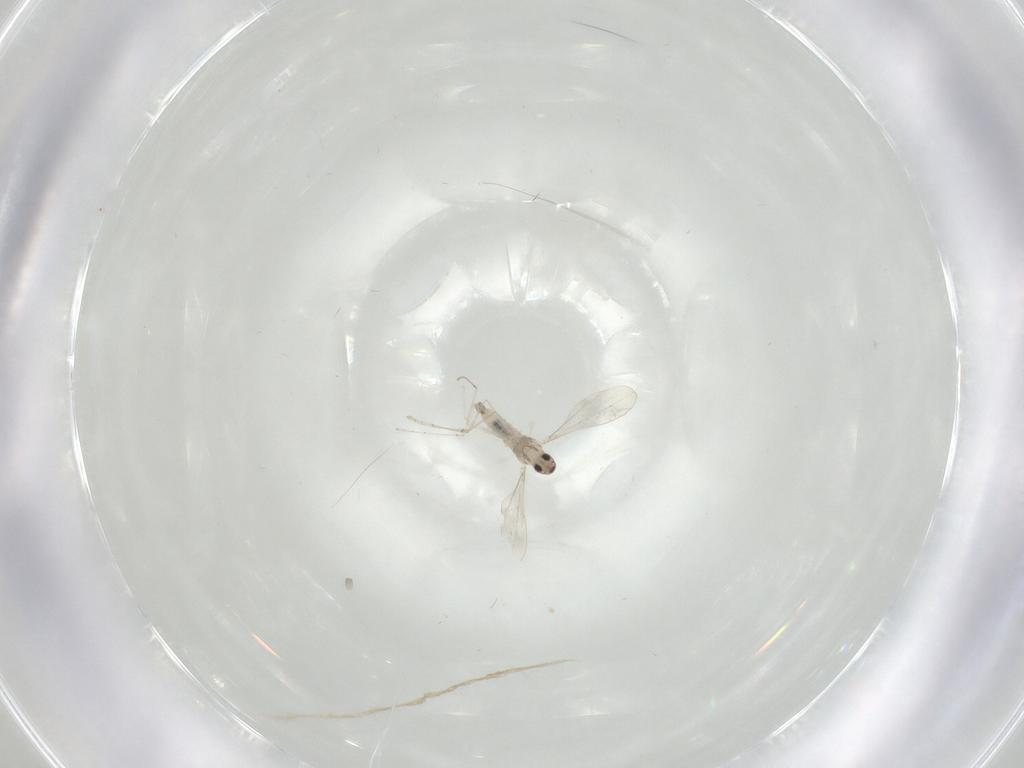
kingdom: Animalia
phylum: Arthropoda
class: Insecta
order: Diptera
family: Cecidomyiidae
